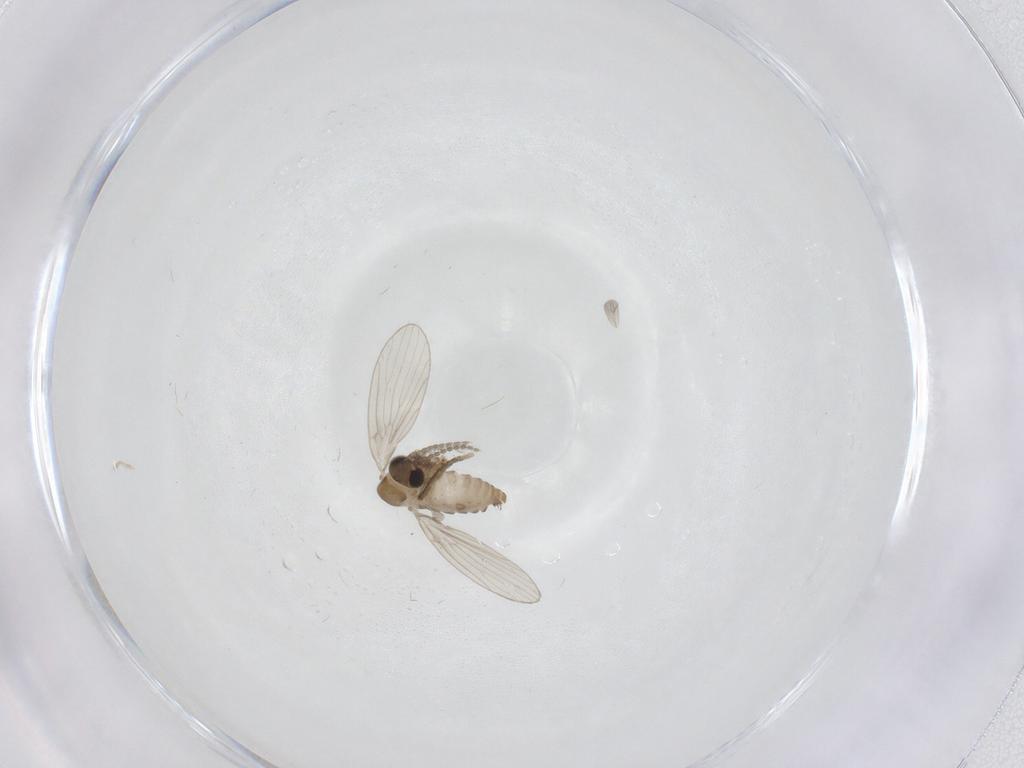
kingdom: Animalia
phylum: Arthropoda
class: Insecta
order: Diptera
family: Psychodidae
